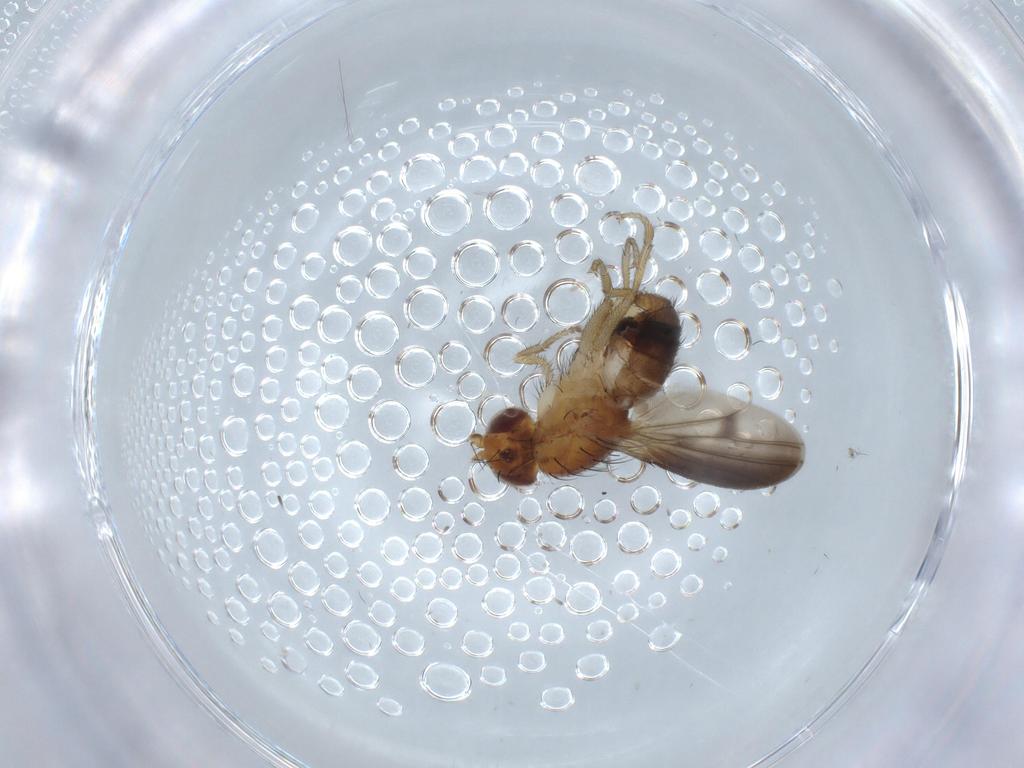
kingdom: Animalia
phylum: Arthropoda
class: Insecta
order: Diptera
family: Heleomyzidae
